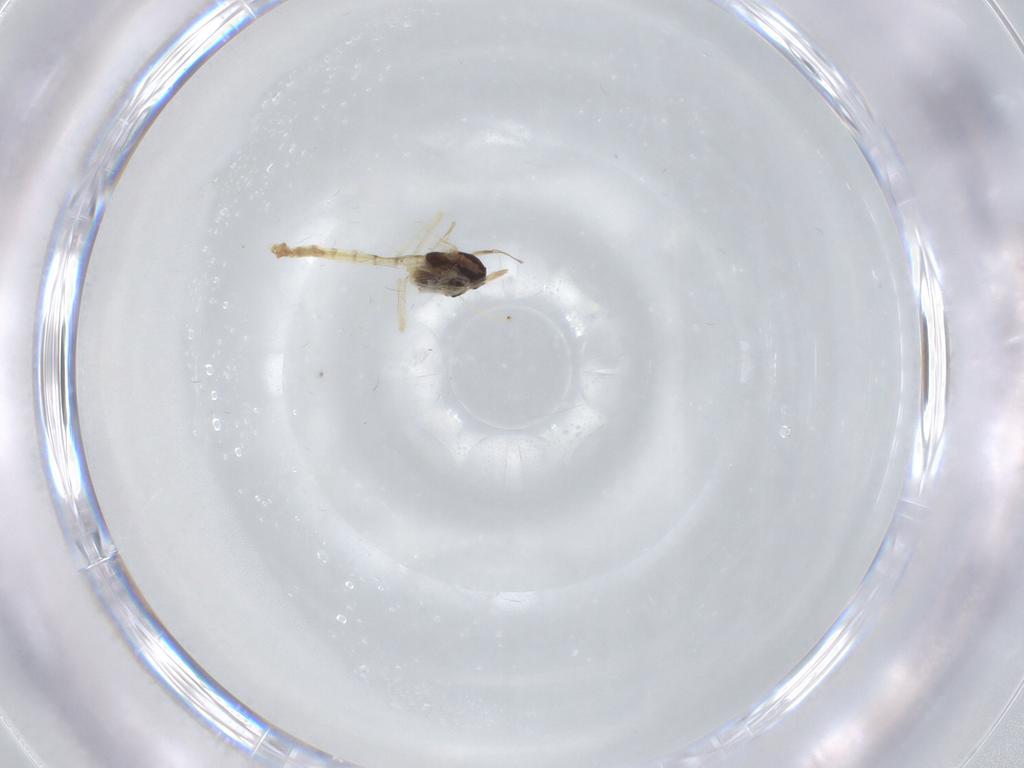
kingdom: Animalia
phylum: Arthropoda
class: Insecta
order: Diptera
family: Chironomidae
